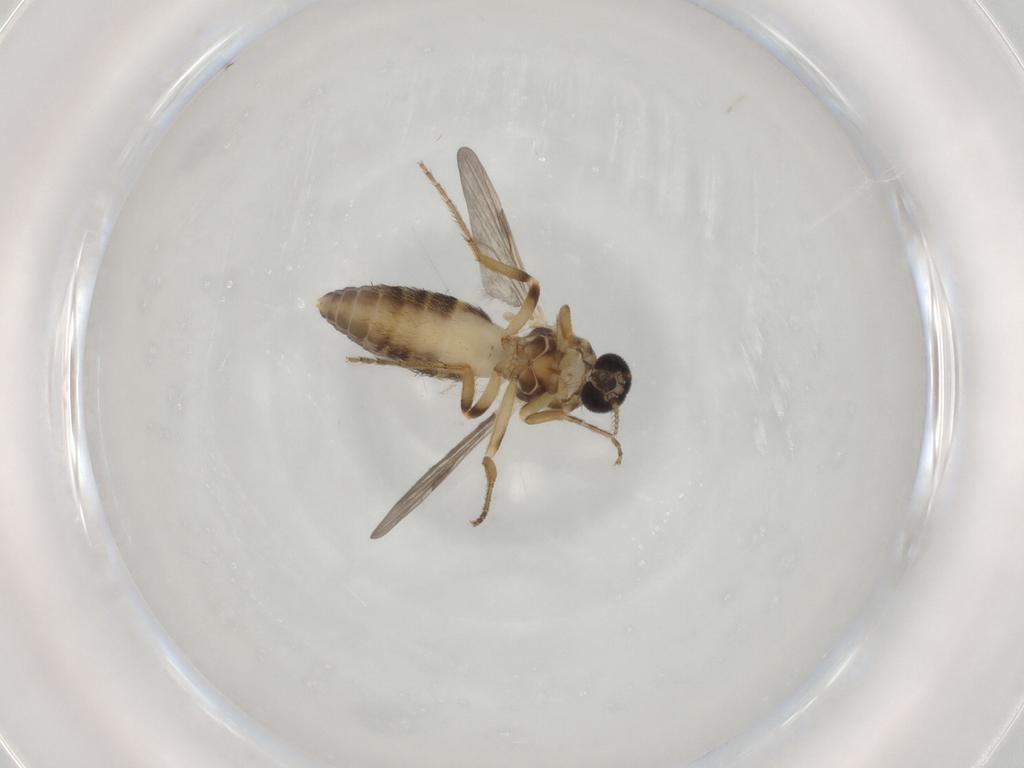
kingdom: Animalia
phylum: Arthropoda
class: Insecta
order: Diptera
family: Ceratopogonidae
